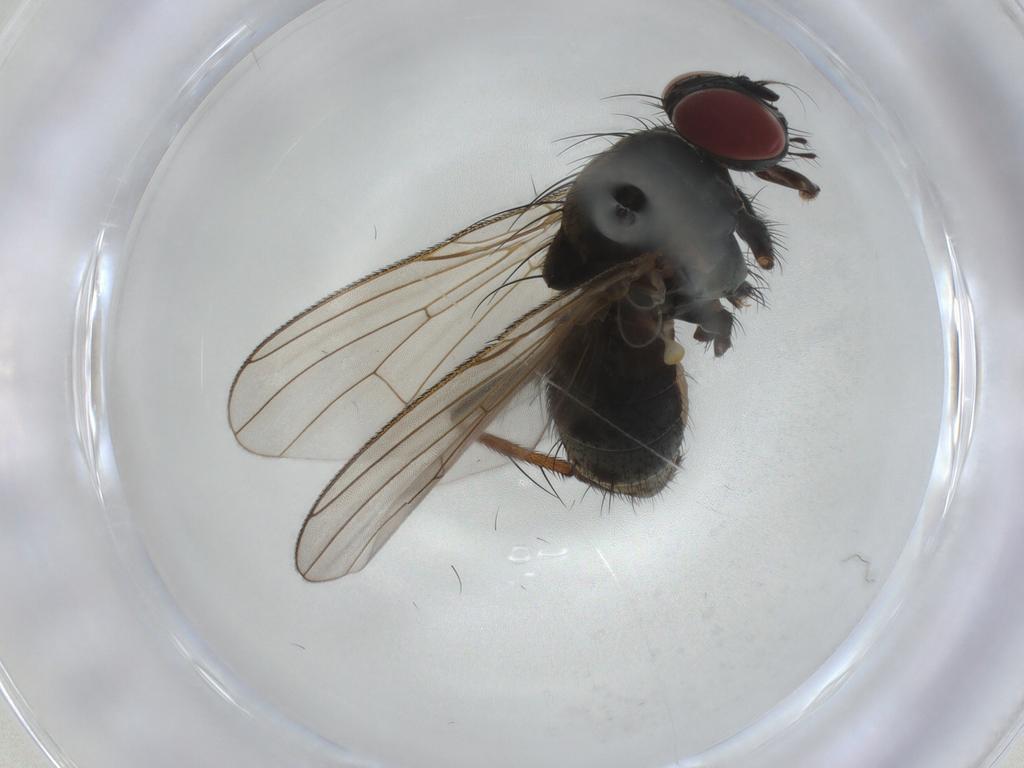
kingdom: Animalia
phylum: Arthropoda
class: Insecta
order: Diptera
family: Muscidae
